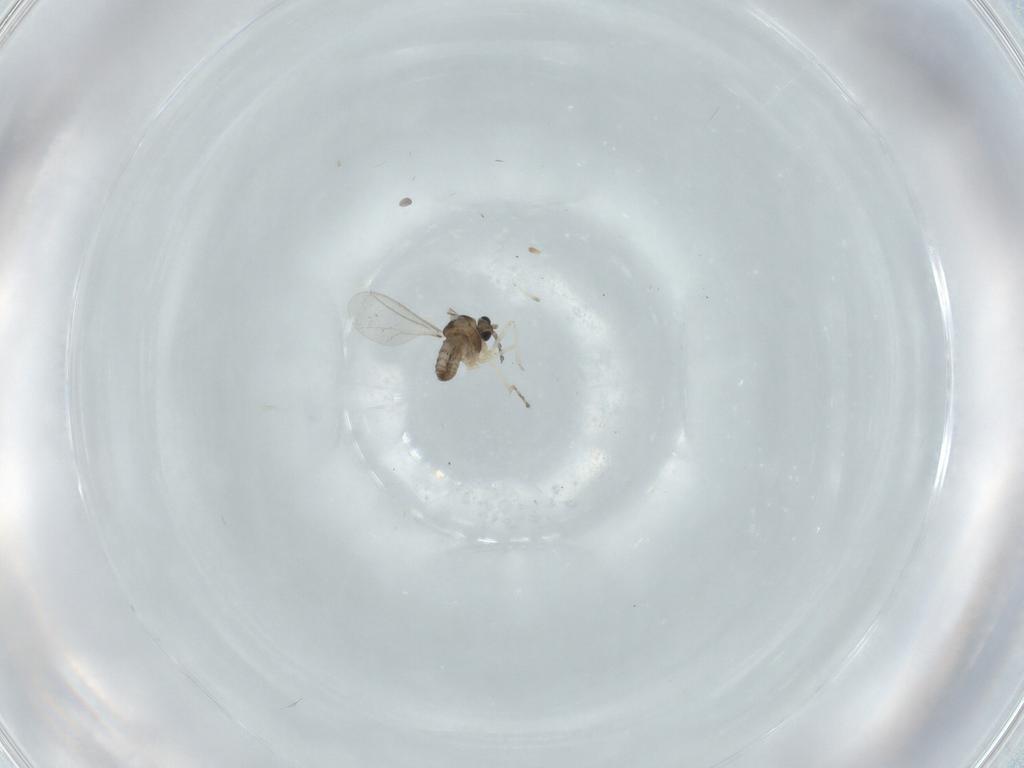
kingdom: Animalia
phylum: Arthropoda
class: Insecta
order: Diptera
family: Cecidomyiidae
